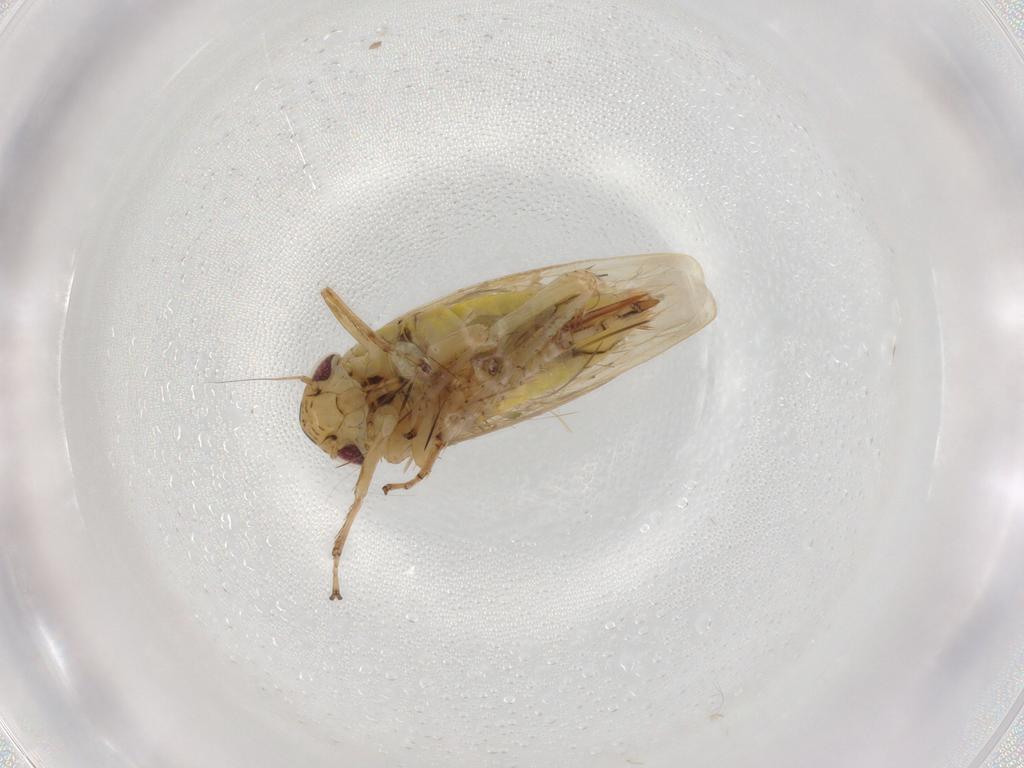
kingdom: Animalia
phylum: Arthropoda
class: Insecta
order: Hemiptera
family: Cicadellidae
